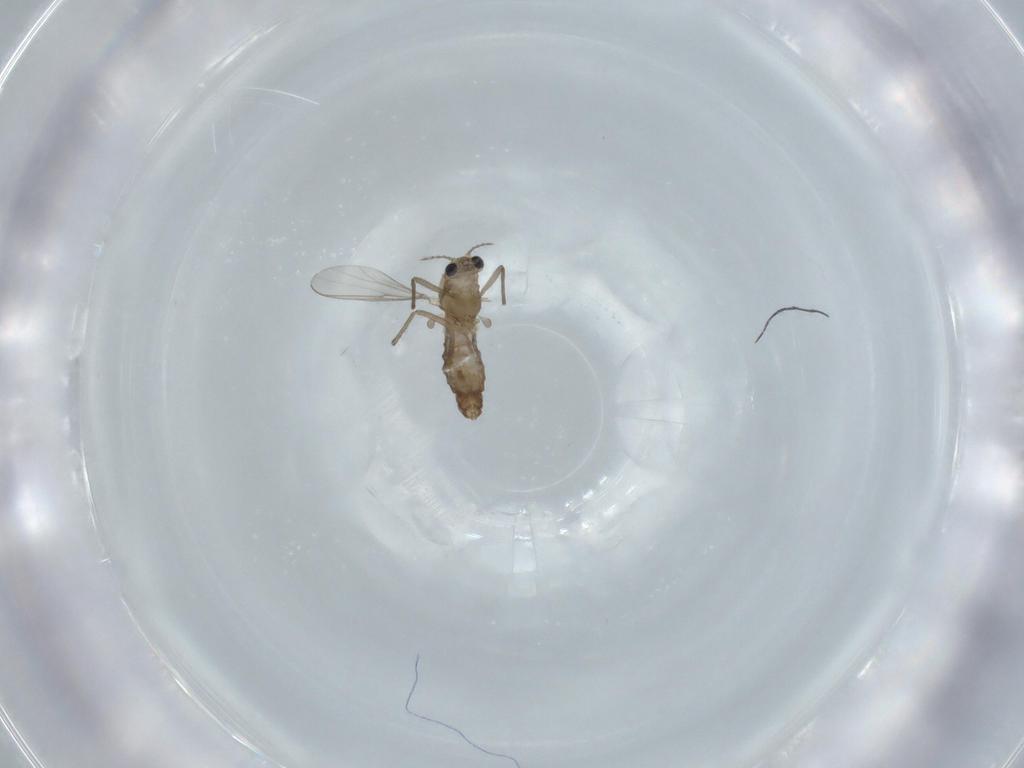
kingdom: Animalia
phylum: Arthropoda
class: Insecta
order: Diptera
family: Chironomidae
